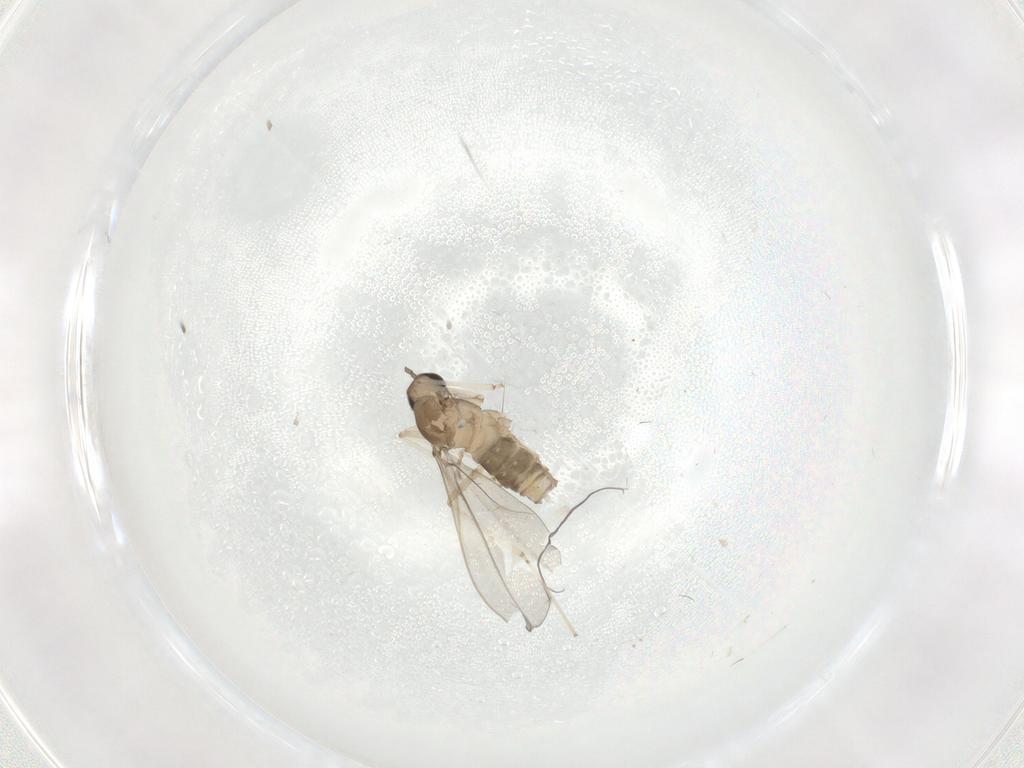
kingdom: Animalia
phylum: Arthropoda
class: Insecta
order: Diptera
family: Cecidomyiidae
